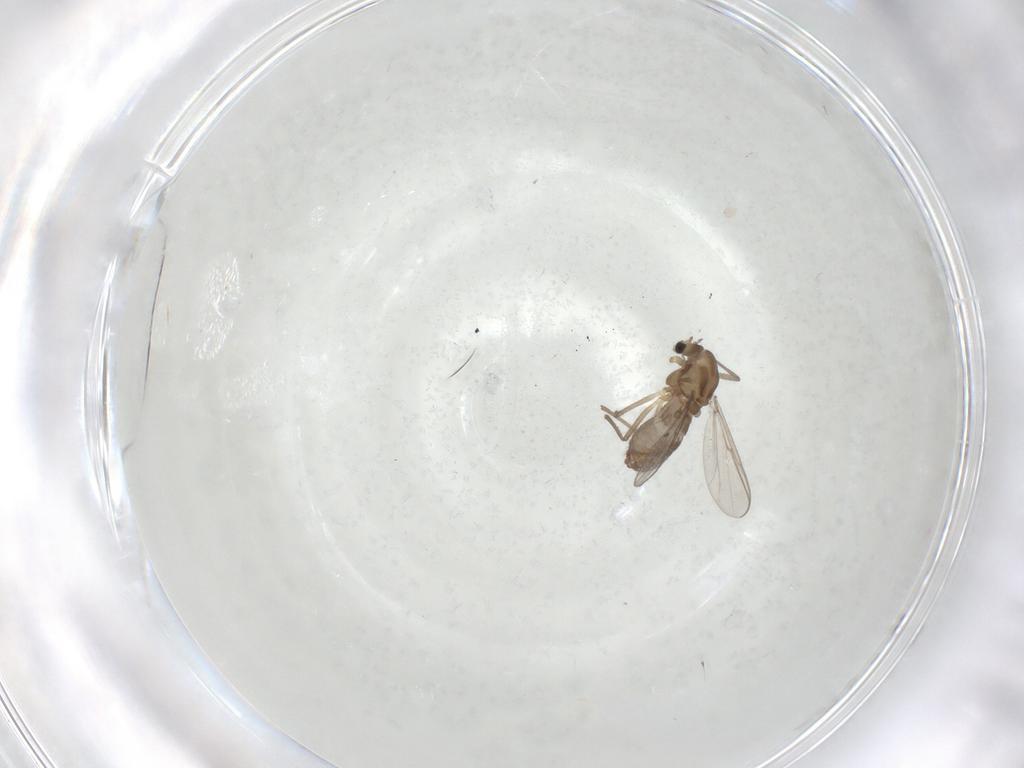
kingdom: Animalia
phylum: Arthropoda
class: Insecta
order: Diptera
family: Chironomidae
